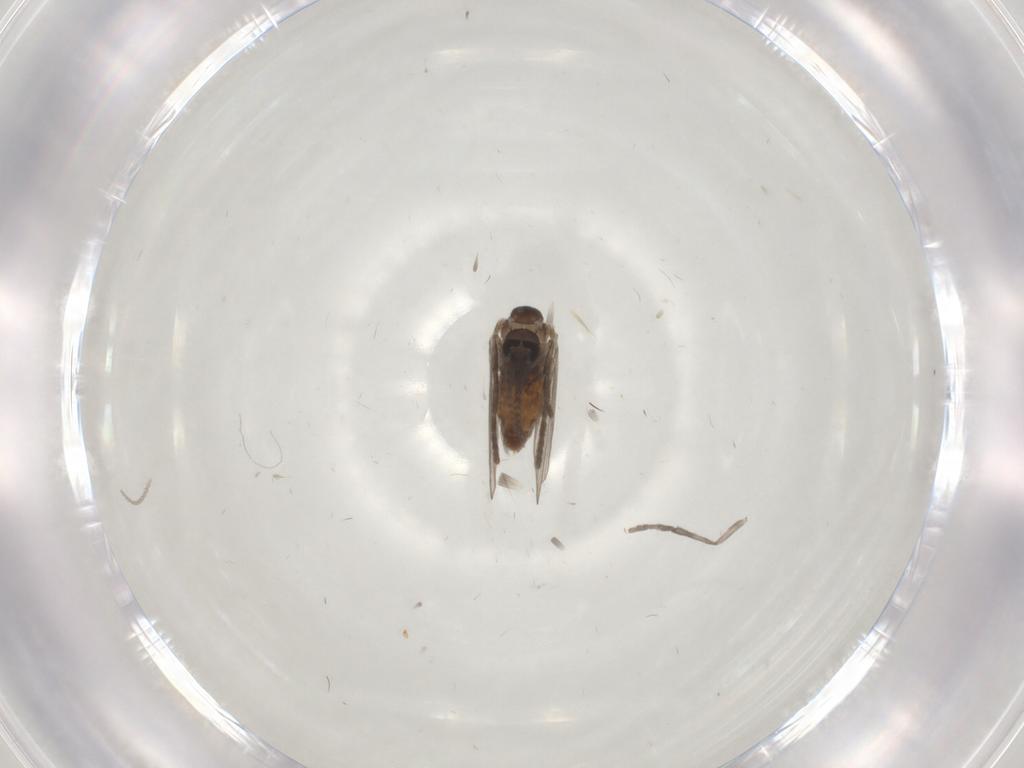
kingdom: Animalia
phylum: Arthropoda
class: Insecta
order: Diptera
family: Psychodidae
